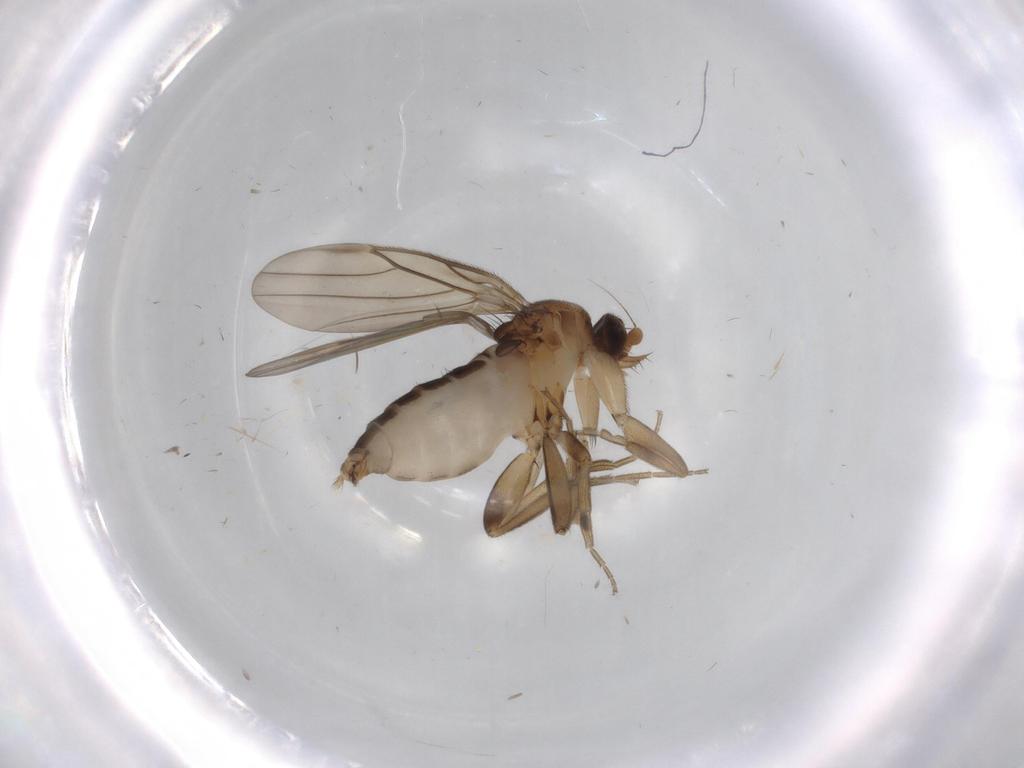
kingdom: Animalia
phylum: Arthropoda
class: Insecta
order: Diptera
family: Phoridae
